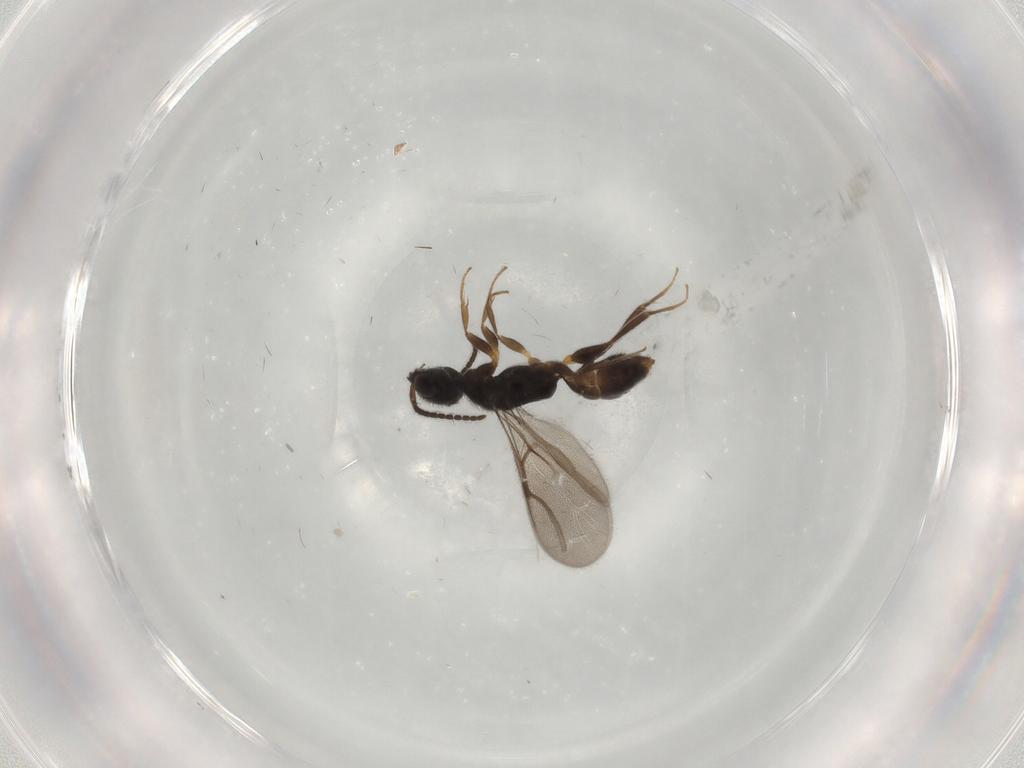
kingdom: Animalia
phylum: Arthropoda
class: Insecta
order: Hymenoptera
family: Bethylidae
